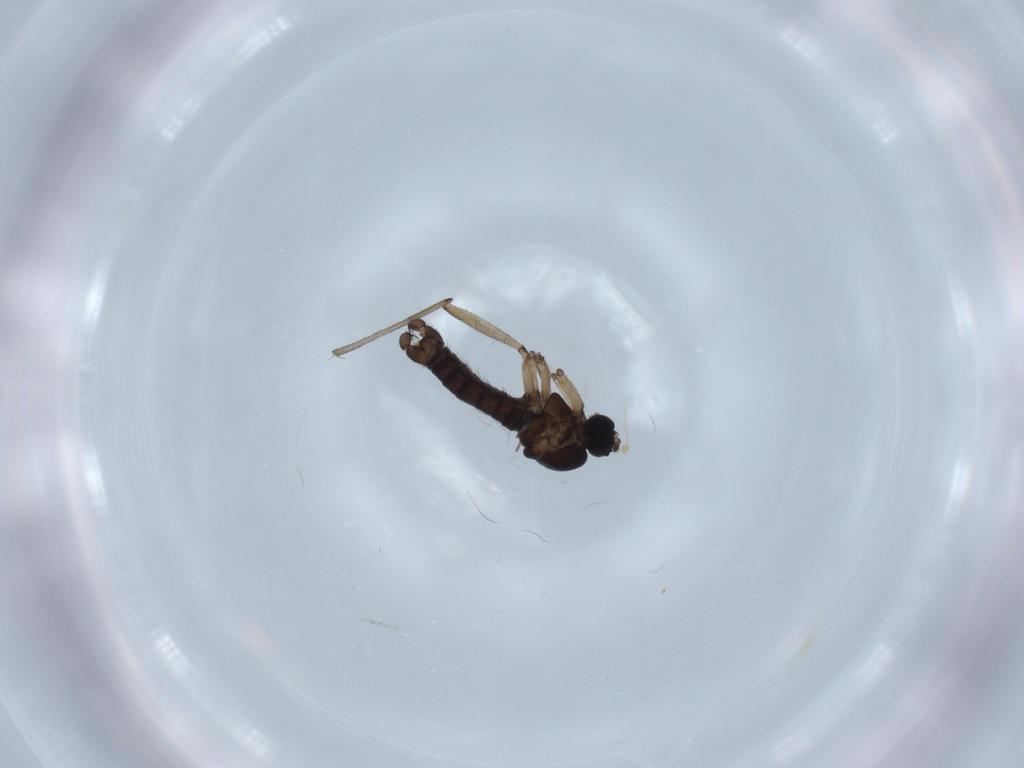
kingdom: Animalia
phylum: Arthropoda
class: Insecta
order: Diptera
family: Sciaridae
